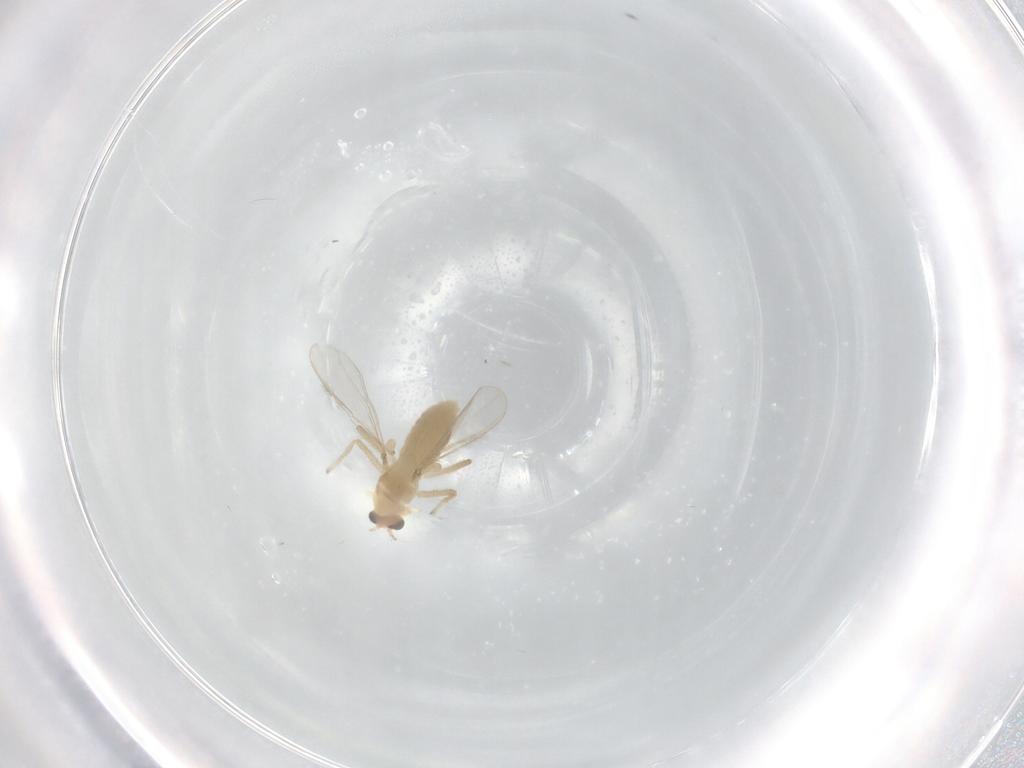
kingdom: Animalia
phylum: Arthropoda
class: Insecta
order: Diptera
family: Chironomidae
